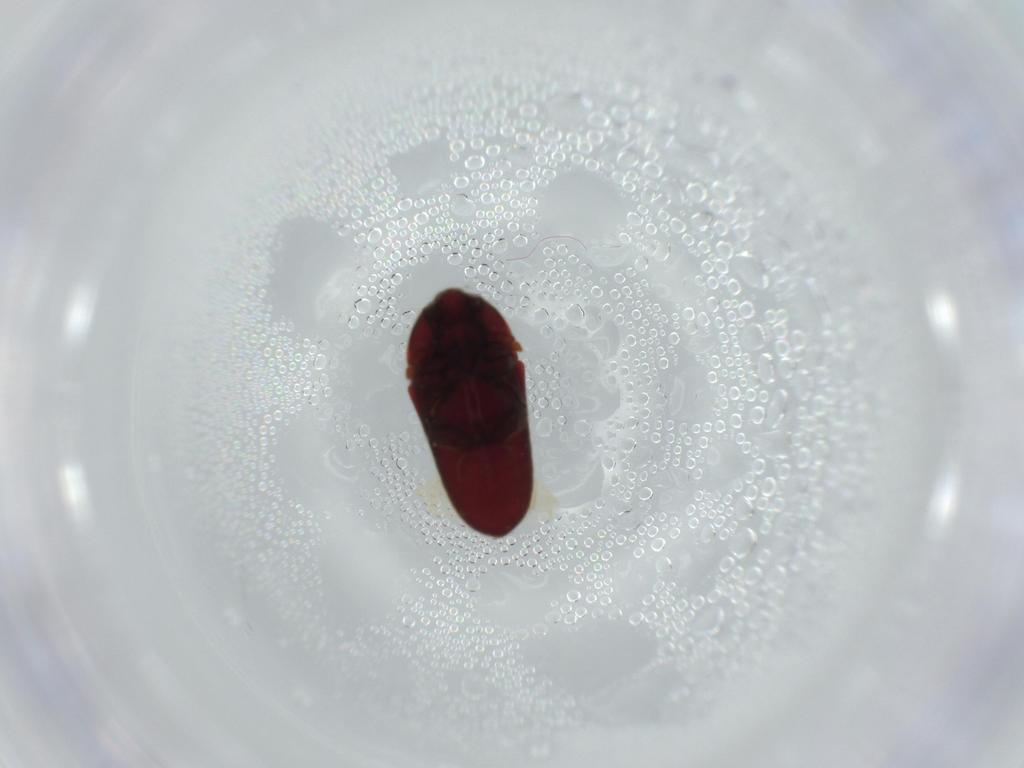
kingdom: Animalia
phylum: Arthropoda
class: Insecta
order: Coleoptera
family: Throscidae
